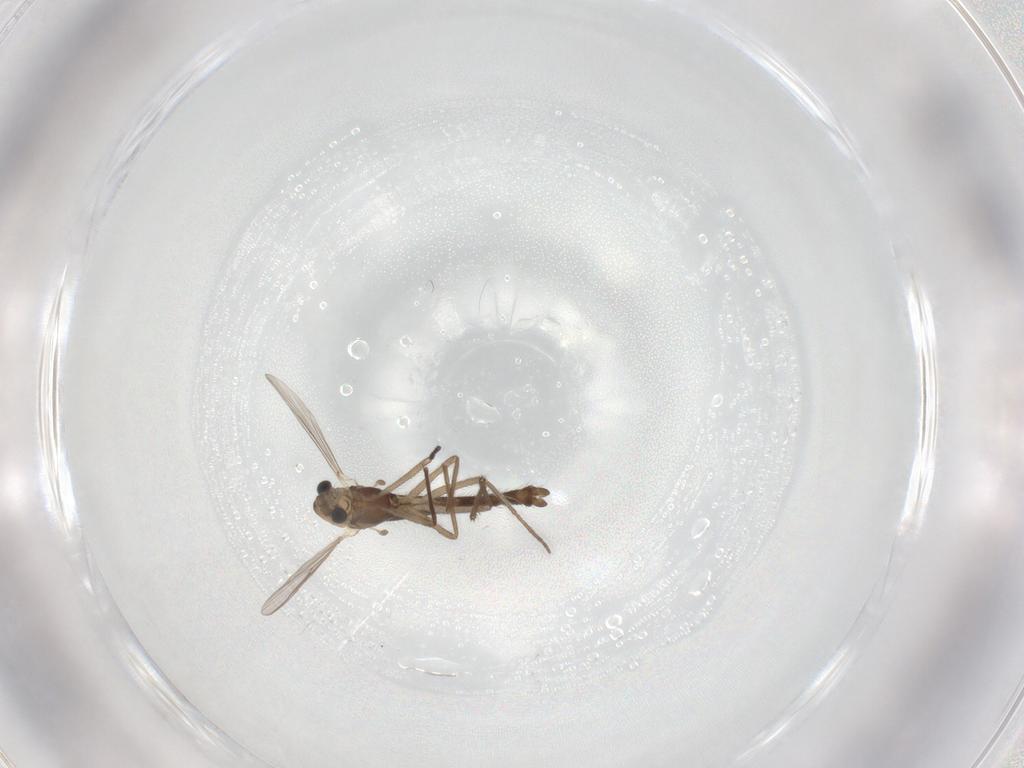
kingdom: Animalia
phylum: Arthropoda
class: Insecta
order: Diptera
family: Chironomidae
